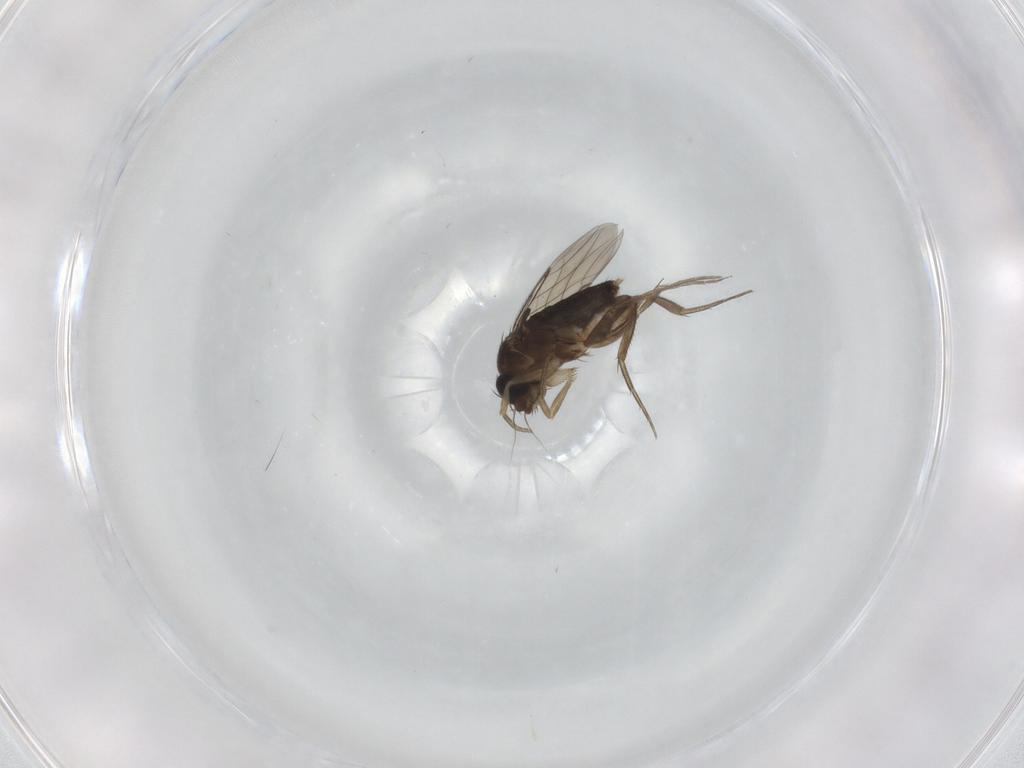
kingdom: Animalia
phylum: Arthropoda
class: Insecta
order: Diptera
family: Phoridae
